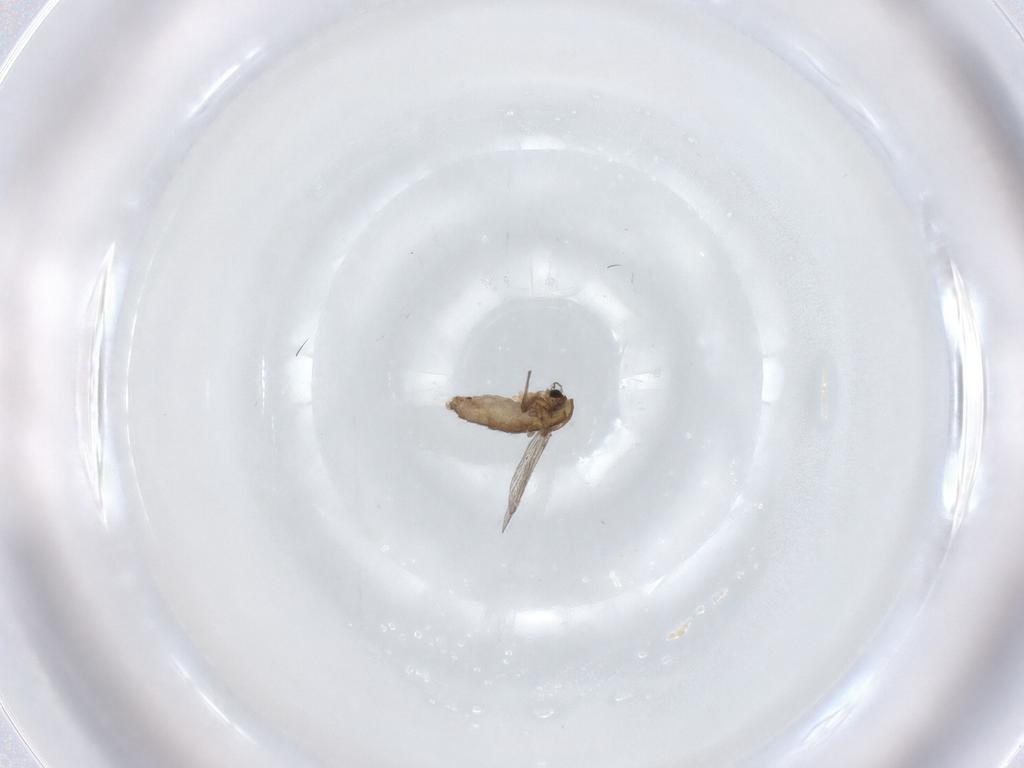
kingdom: Animalia
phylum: Arthropoda
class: Insecta
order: Diptera
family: Chironomidae
